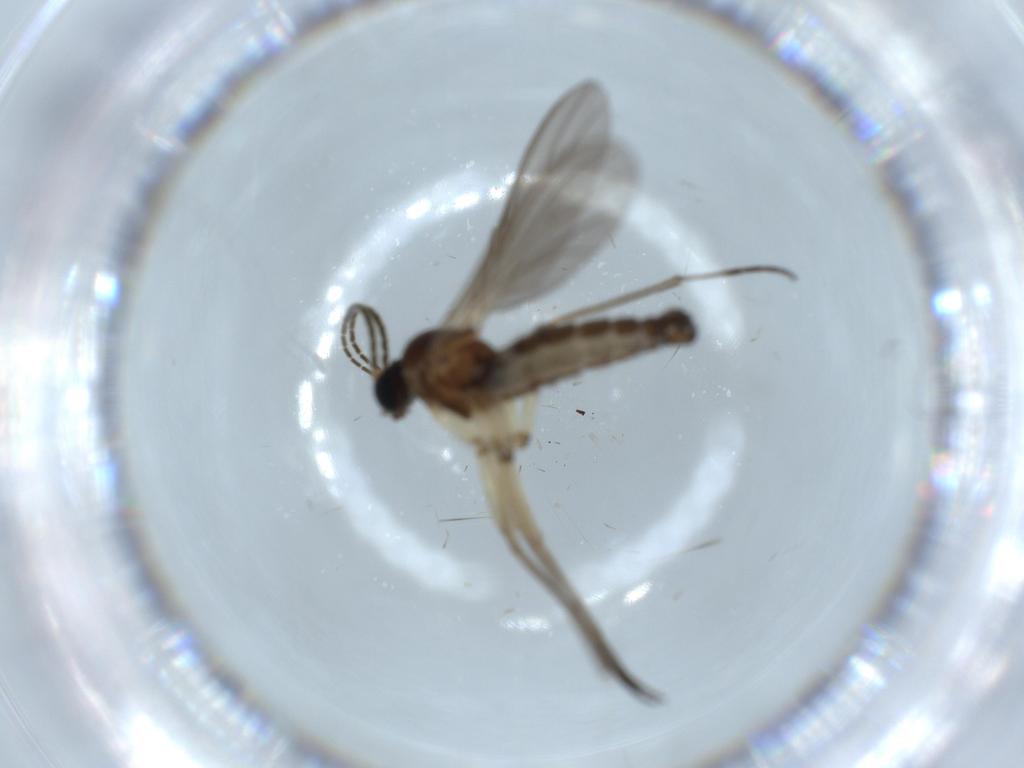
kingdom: Animalia
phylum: Arthropoda
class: Insecta
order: Diptera
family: Sciaridae
